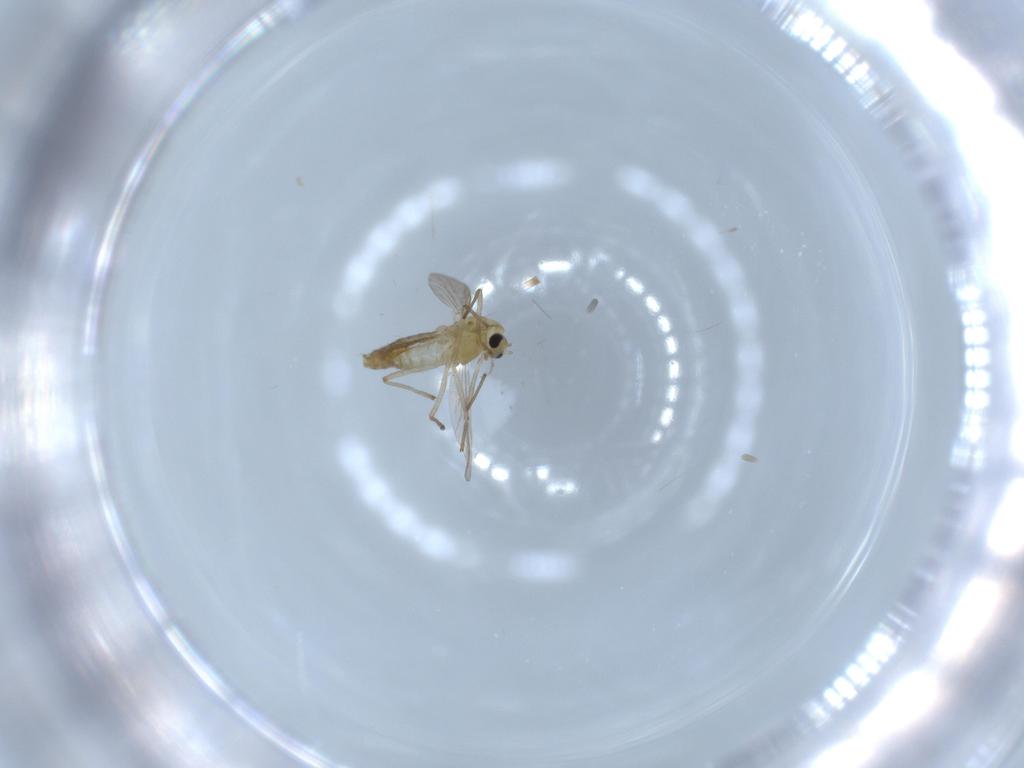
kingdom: Animalia
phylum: Arthropoda
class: Insecta
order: Diptera
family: Chironomidae
